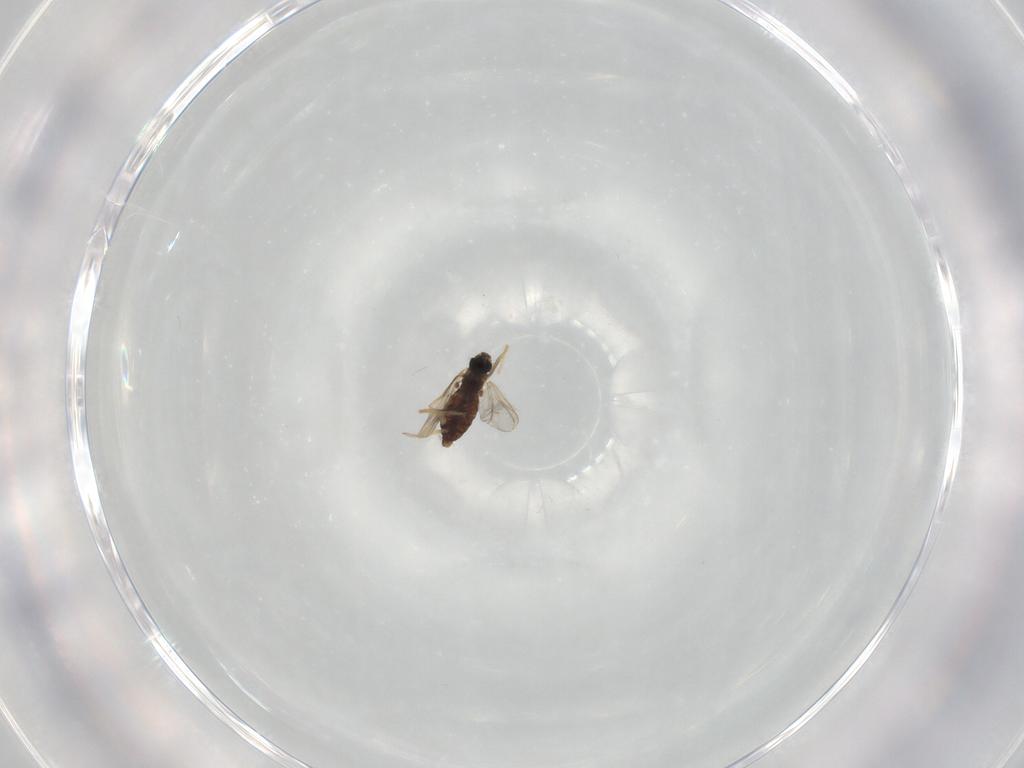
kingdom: Animalia
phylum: Arthropoda
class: Insecta
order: Diptera
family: Chironomidae
